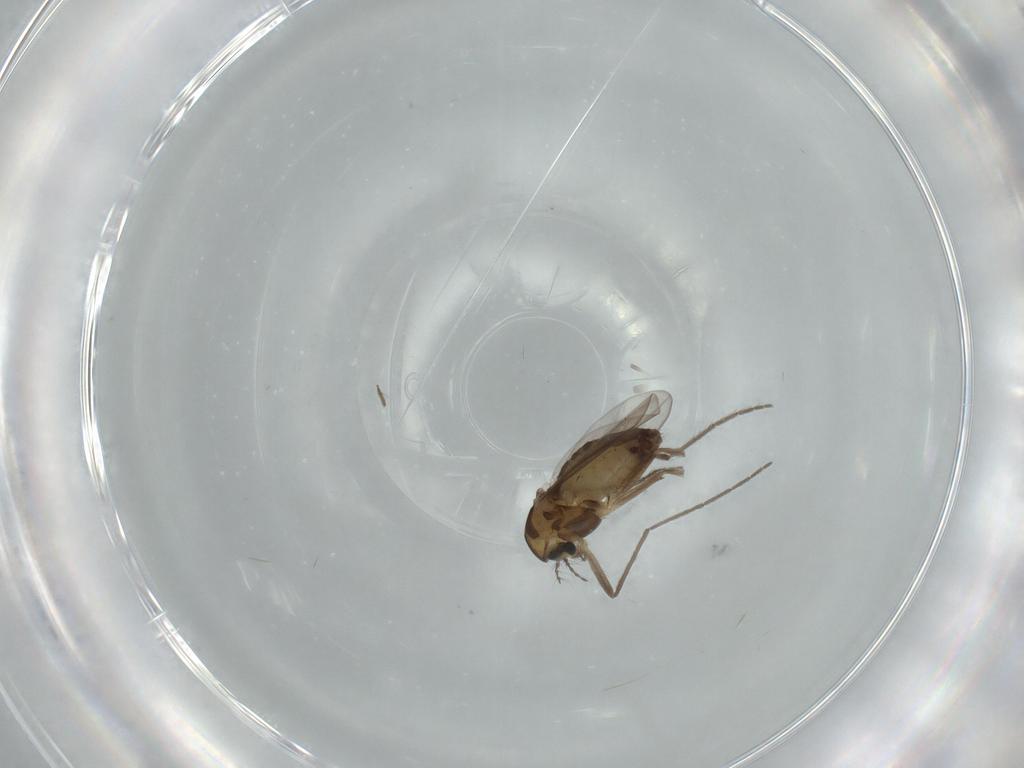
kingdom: Animalia
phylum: Arthropoda
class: Insecta
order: Diptera
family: Chironomidae
